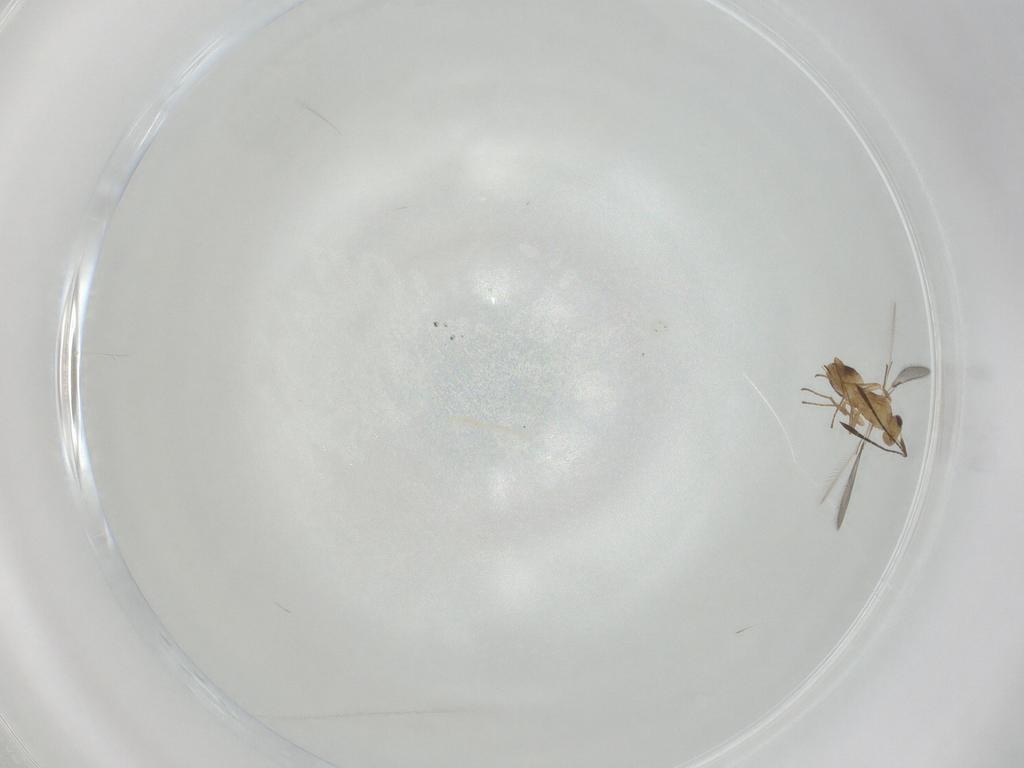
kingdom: Animalia
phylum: Arthropoda
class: Insecta
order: Hymenoptera
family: Mymaridae
